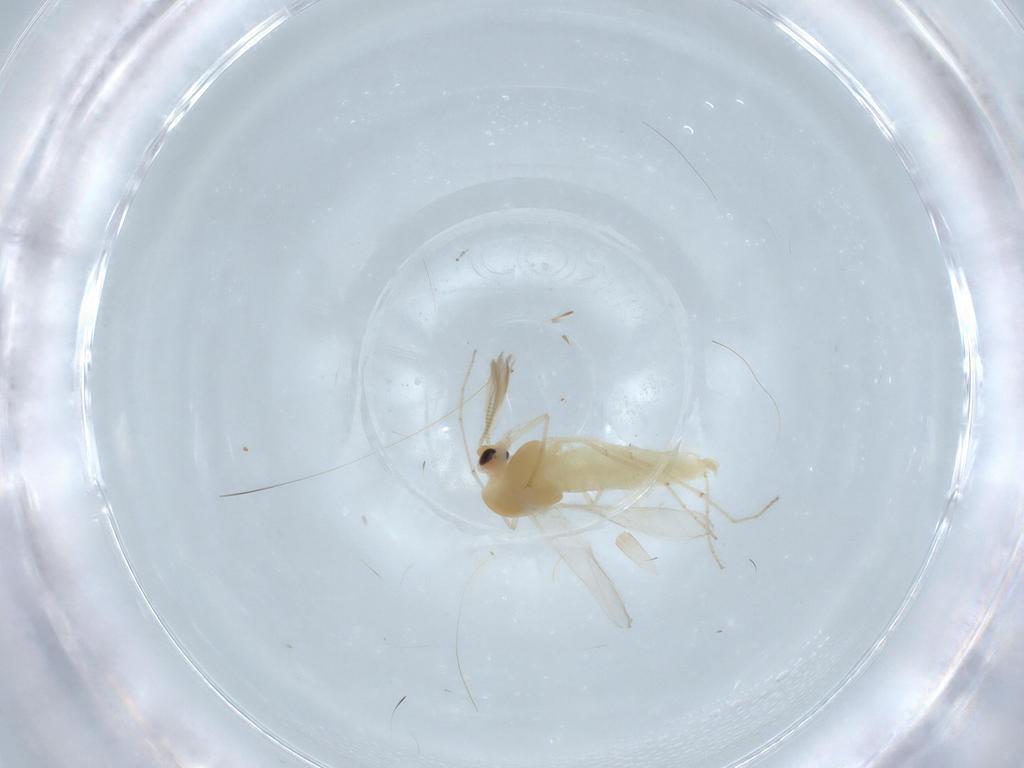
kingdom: Animalia
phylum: Arthropoda
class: Insecta
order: Diptera
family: Chironomidae
